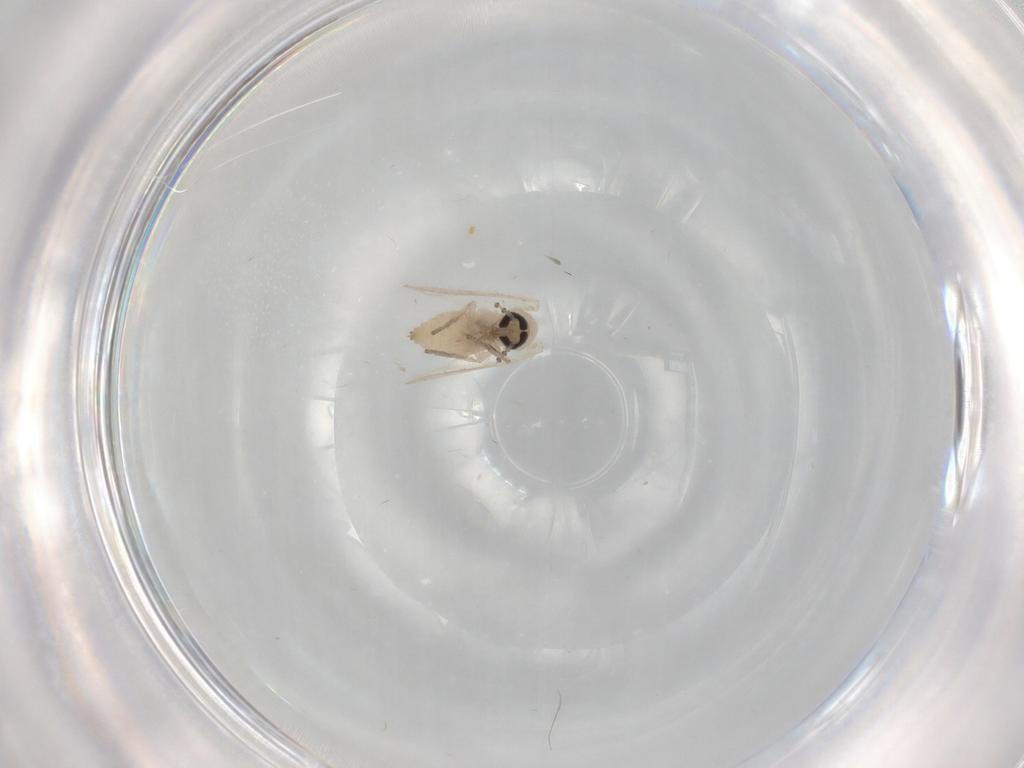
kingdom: Animalia
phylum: Arthropoda
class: Insecta
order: Diptera
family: Psychodidae
